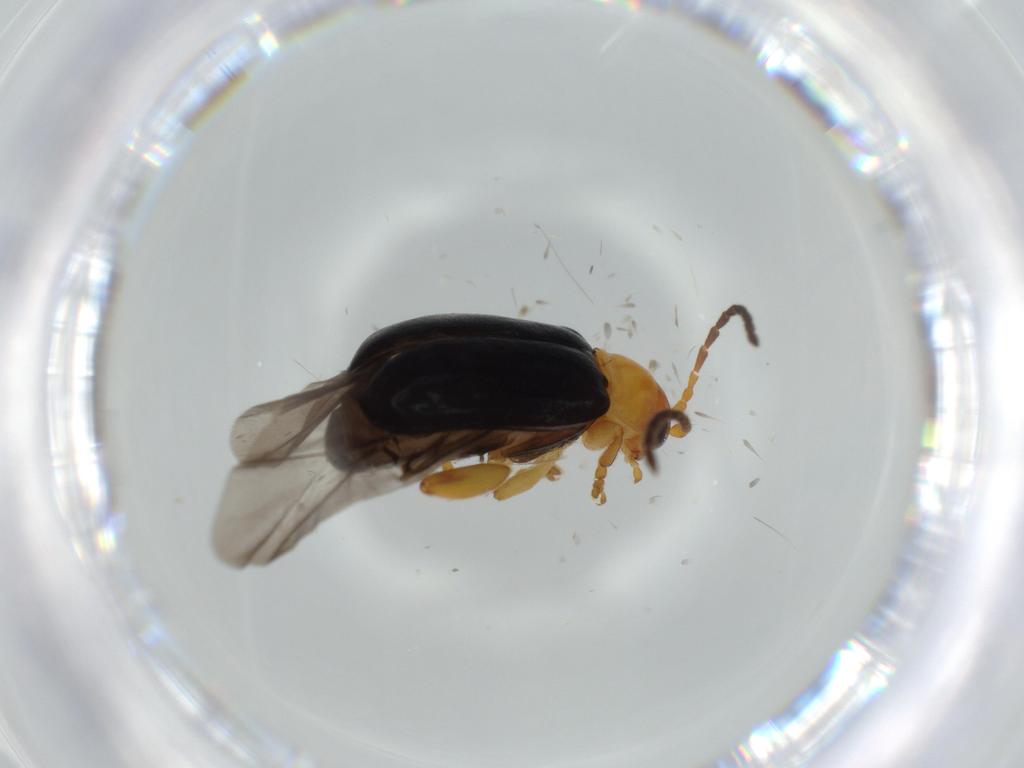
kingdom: Animalia
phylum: Arthropoda
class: Insecta
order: Coleoptera
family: Chrysomelidae
